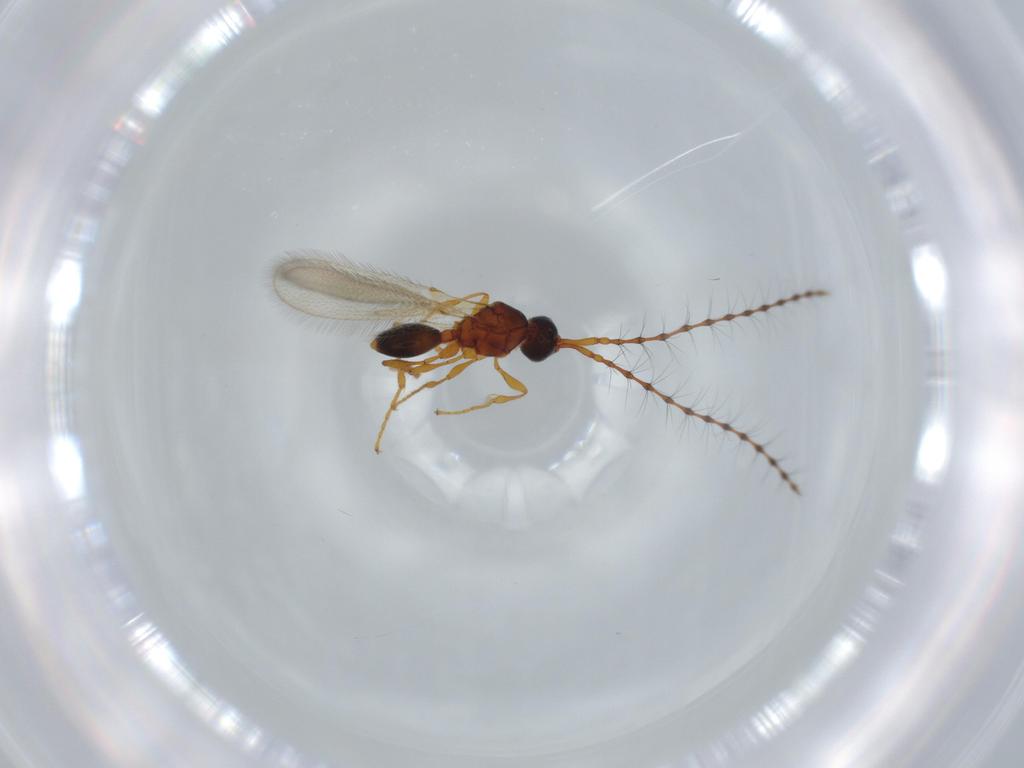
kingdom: Animalia
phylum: Arthropoda
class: Insecta
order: Hymenoptera
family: Diapriidae
